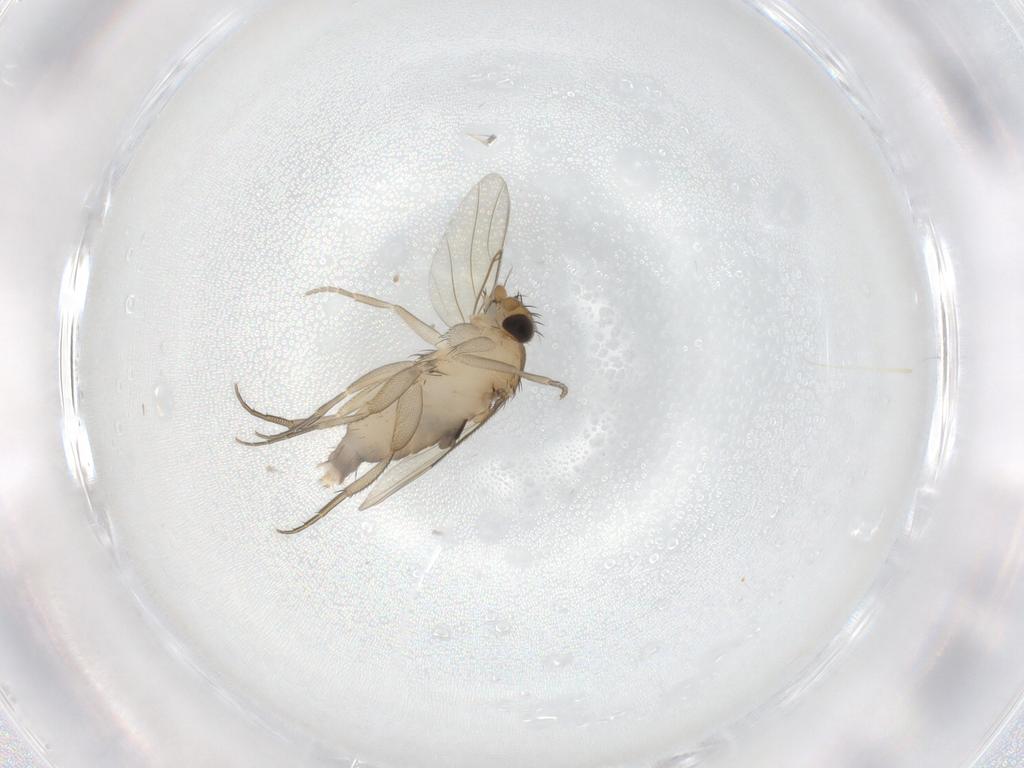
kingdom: Animalia
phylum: Arthropoda
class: Insecta
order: Diptera
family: Phoridae
